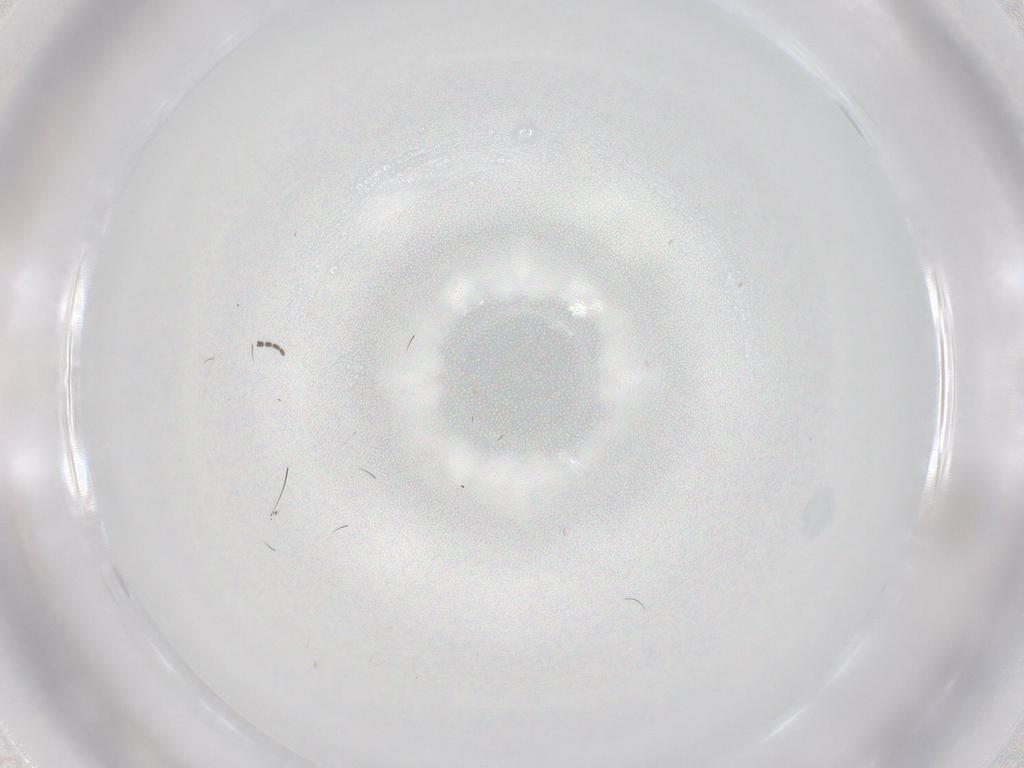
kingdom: Animalia
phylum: Arthropoda
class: Insecta
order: Diptera
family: Sciaridae
